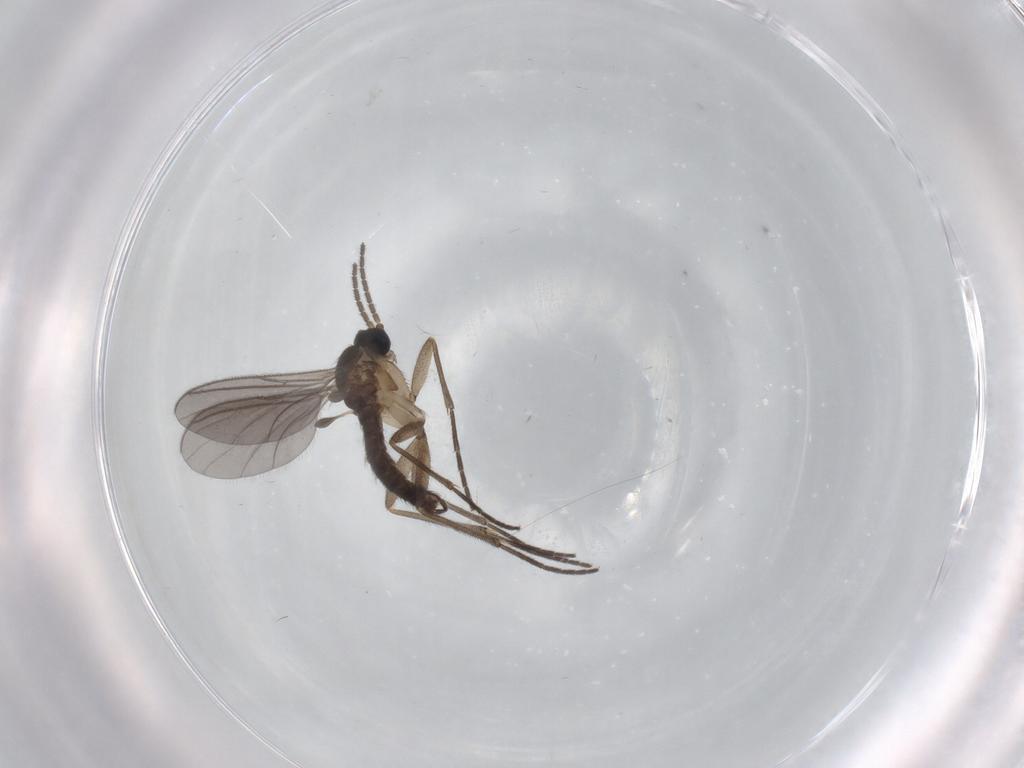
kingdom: Animalia
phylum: Arthropoda
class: Insecta
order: Diptera
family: Sciaridae
